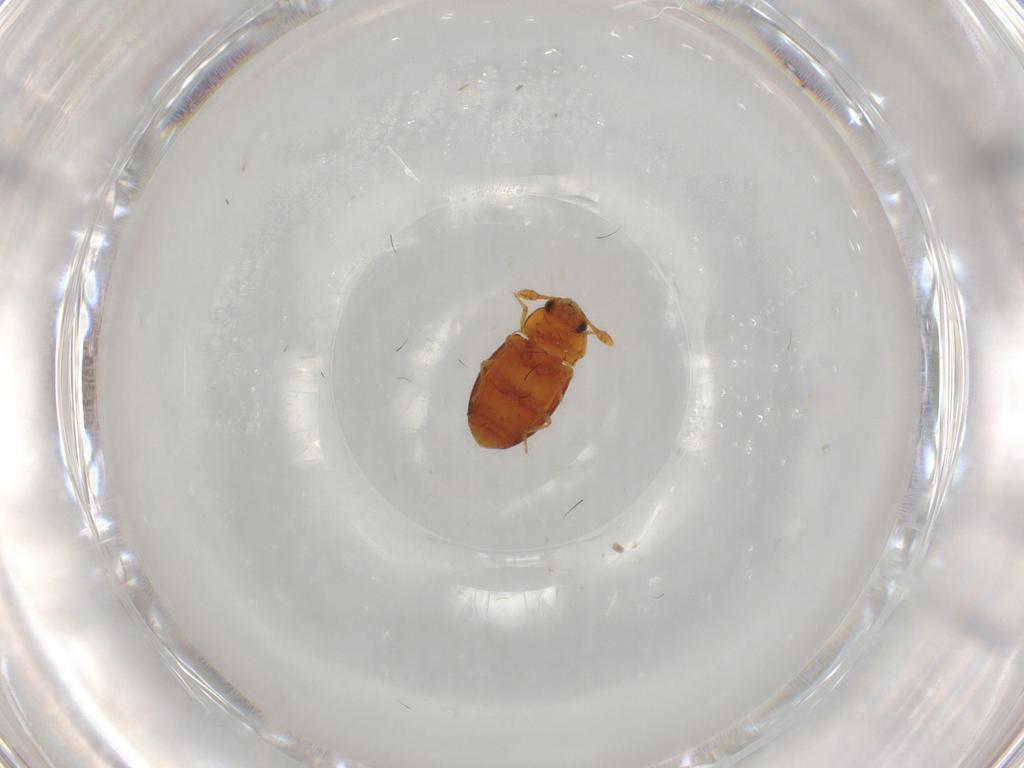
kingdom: Animalia
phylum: Arthropoda
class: Insecta
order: Coleoptera
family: Tenebrionidae
